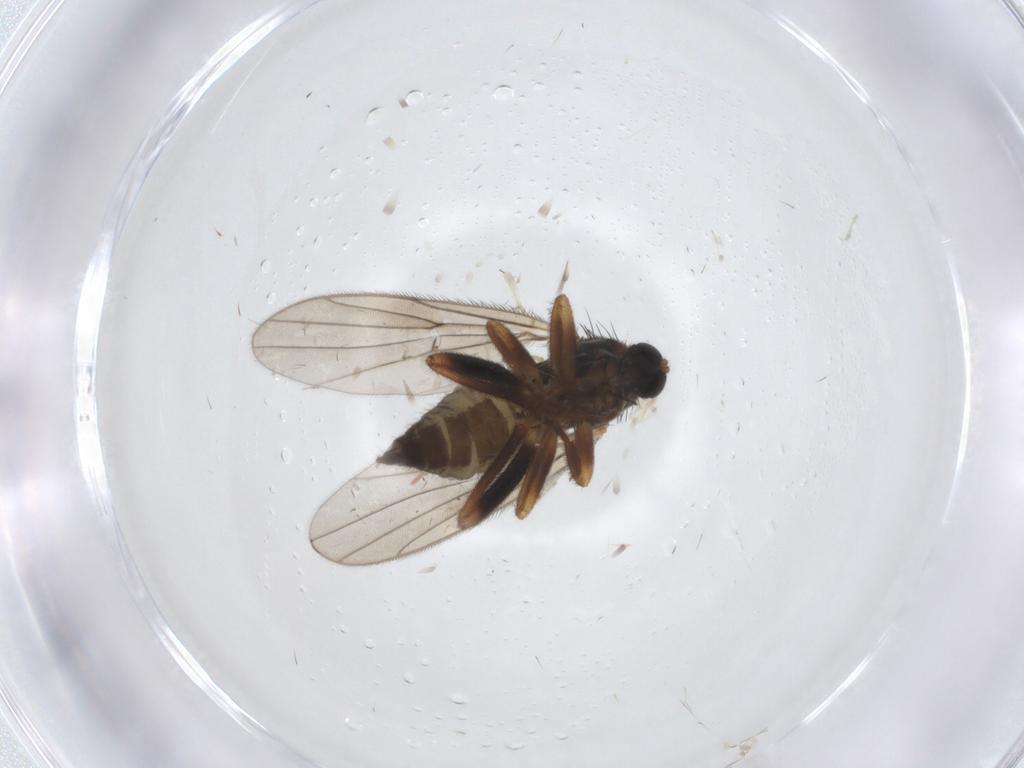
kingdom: Animalia
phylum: Arthropoda
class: Insecta
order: Diptera
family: Hybotidae
